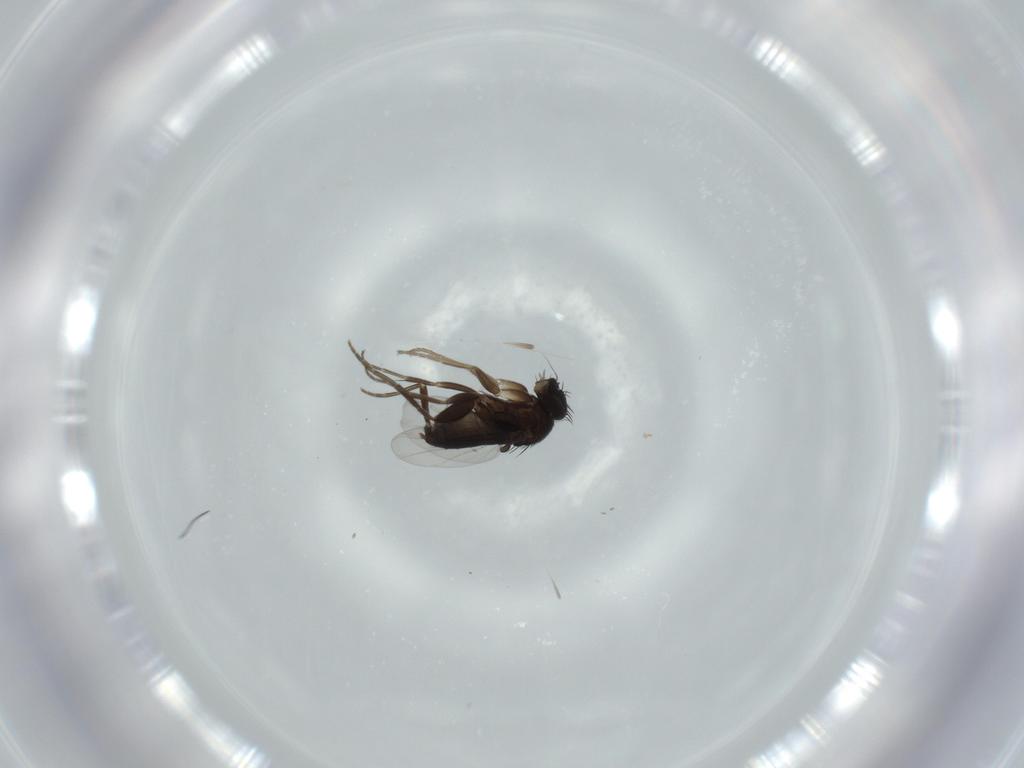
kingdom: Animalia
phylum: Arthropoda
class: Insecta
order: Diptera
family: Phoridae
